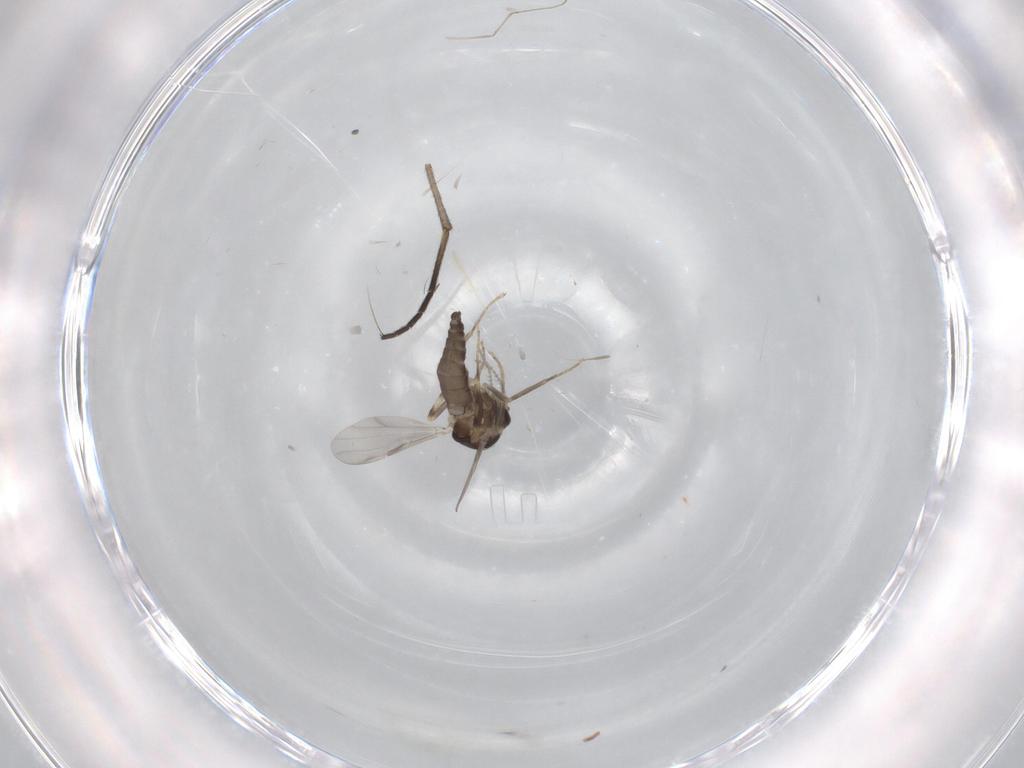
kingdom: Animalia
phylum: Arthropoda
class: Insecta
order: Diptera
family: Ceratopogonidae
